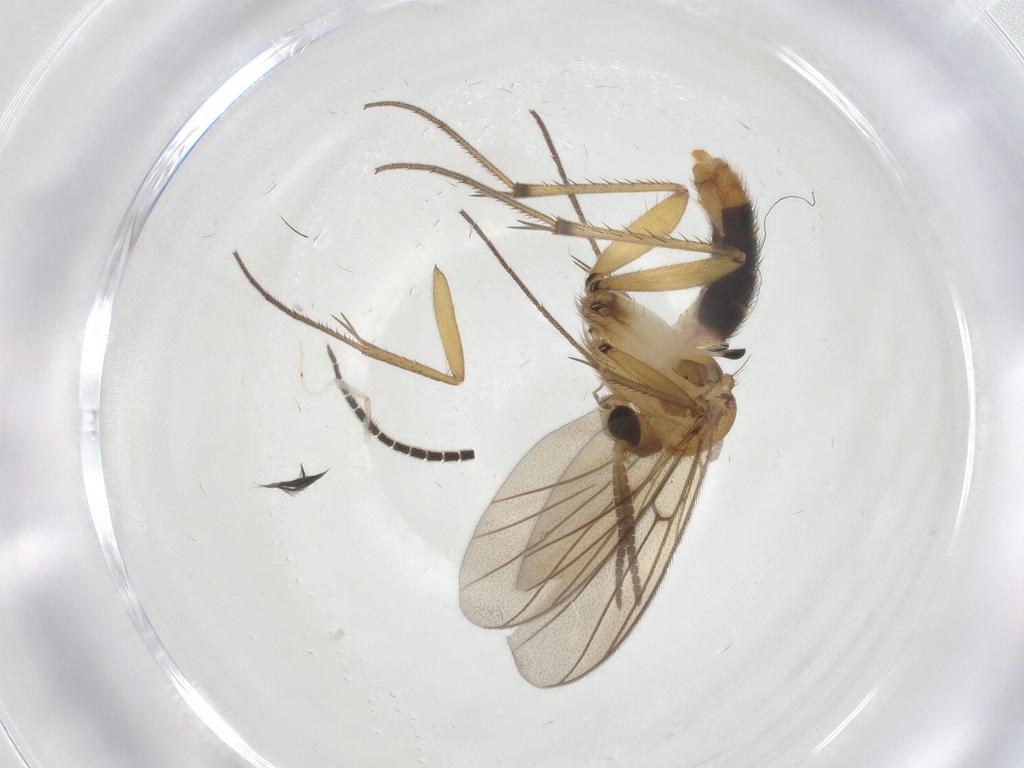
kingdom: Animalia
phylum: Arthropoda
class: Insecta
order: Diptera
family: Mycetophilidae
